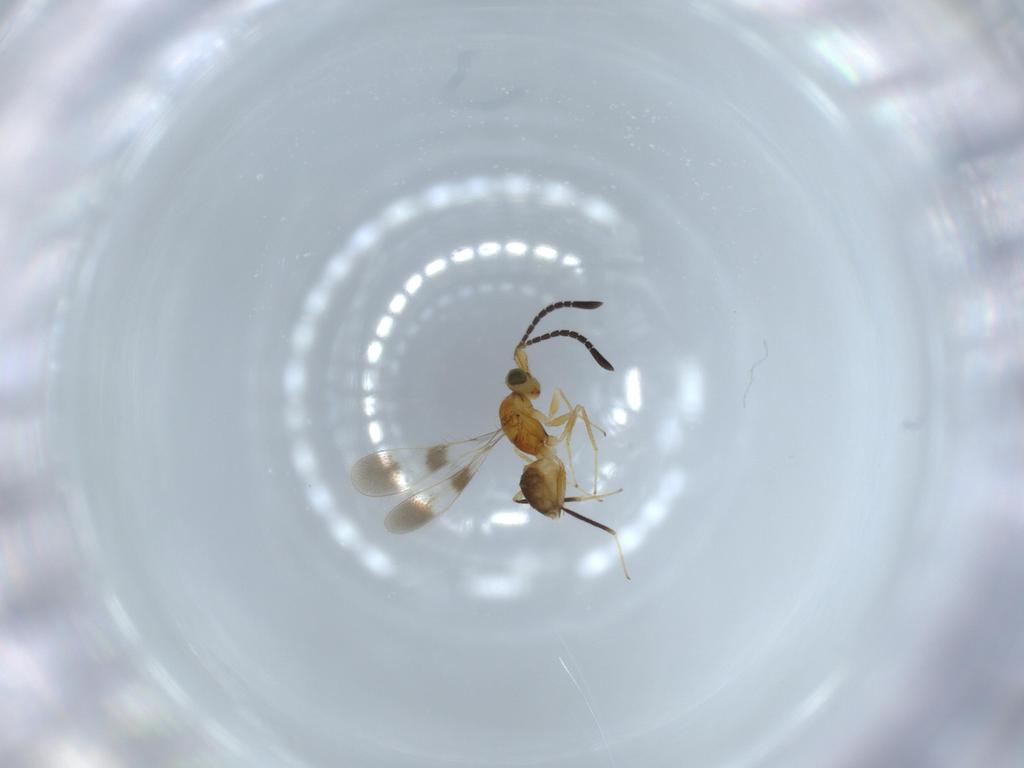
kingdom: Animalia
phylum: Arthropoda
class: Insecta
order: Hymenoptera
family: Mymaridae
